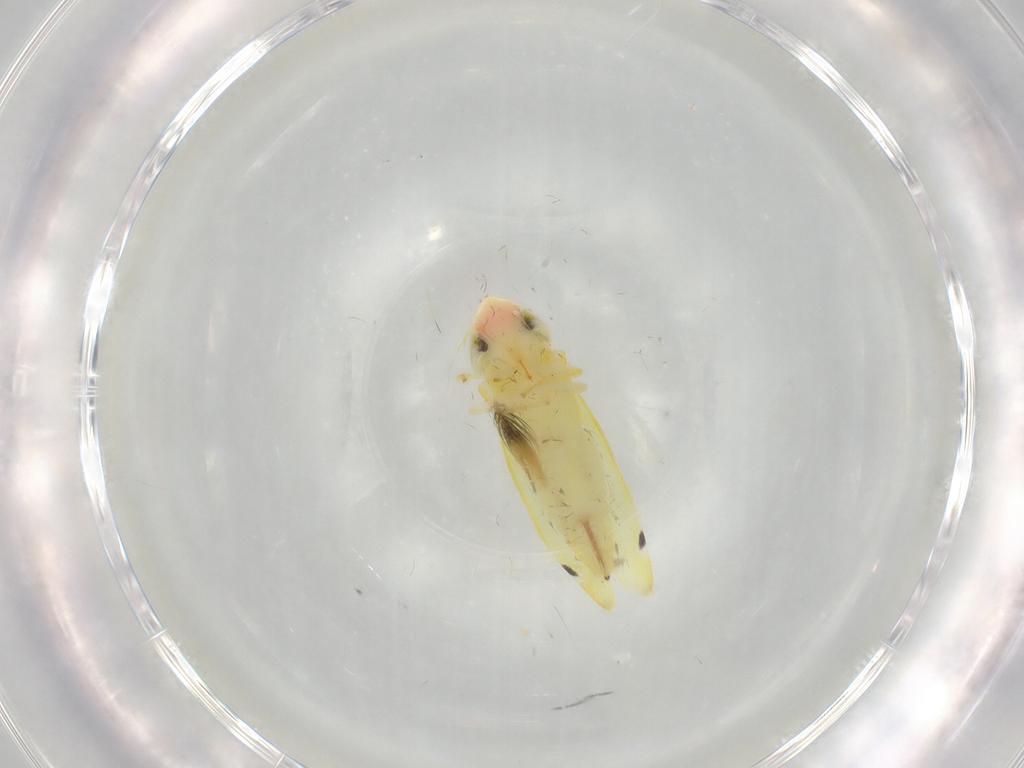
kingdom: Animalia
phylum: Arthropoda
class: Insecta
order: Hemiptera
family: Cicadellidae
